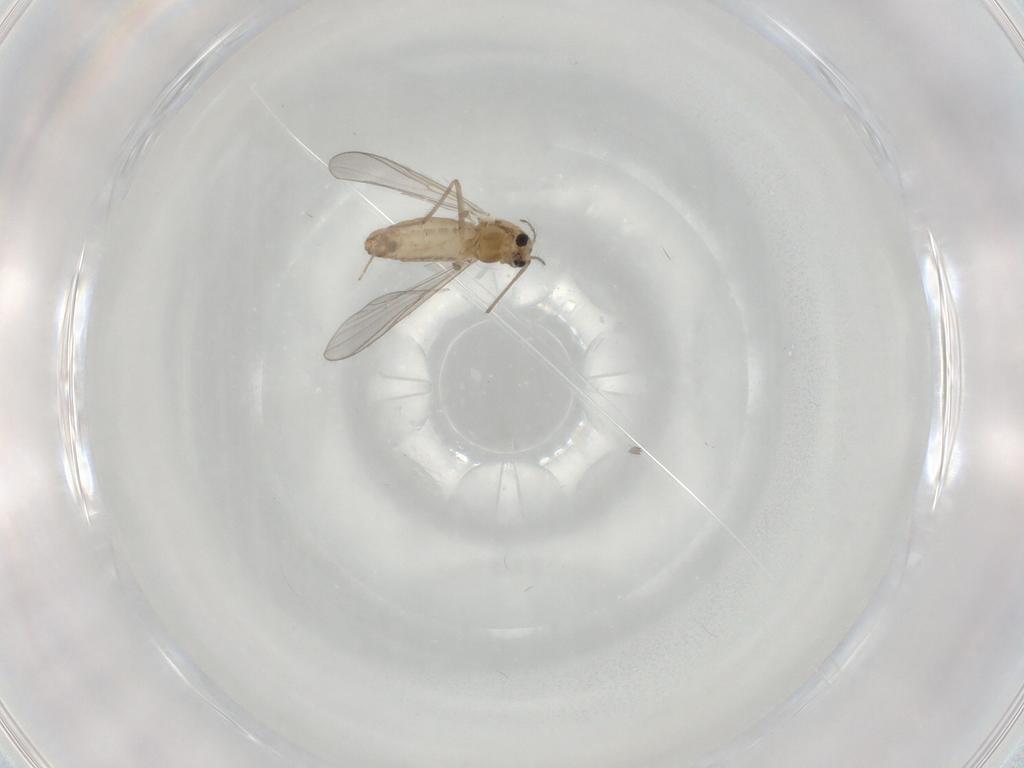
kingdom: Animalia
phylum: Arthropoda
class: Insecta
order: Diptera
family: Chironomidae
